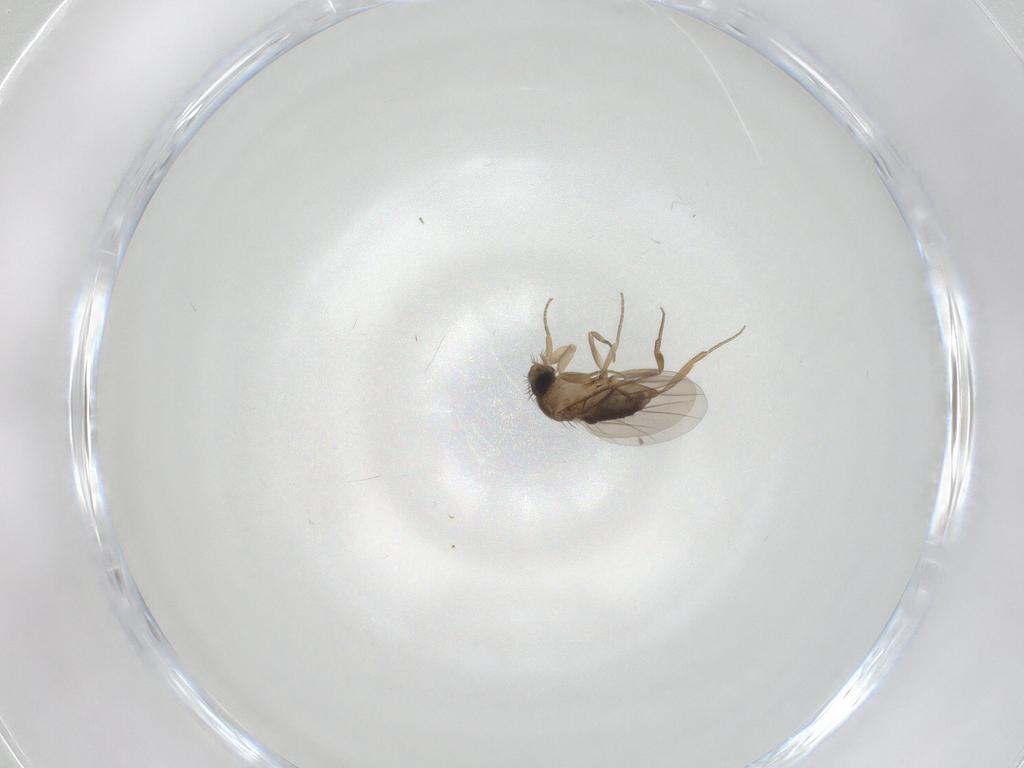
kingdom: Animalia
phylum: Arthropoda
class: Insecta
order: Diptera
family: Phoridae
